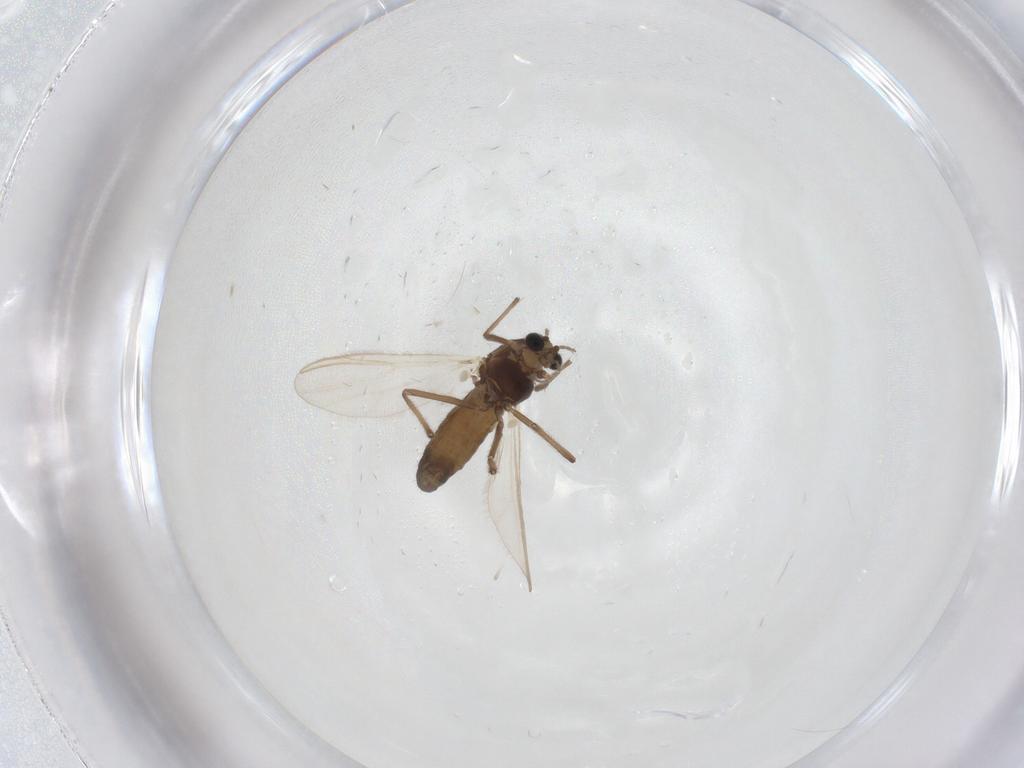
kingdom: Animalia
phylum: Arthropoda
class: Insecta
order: Diptera
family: Chironomidae
